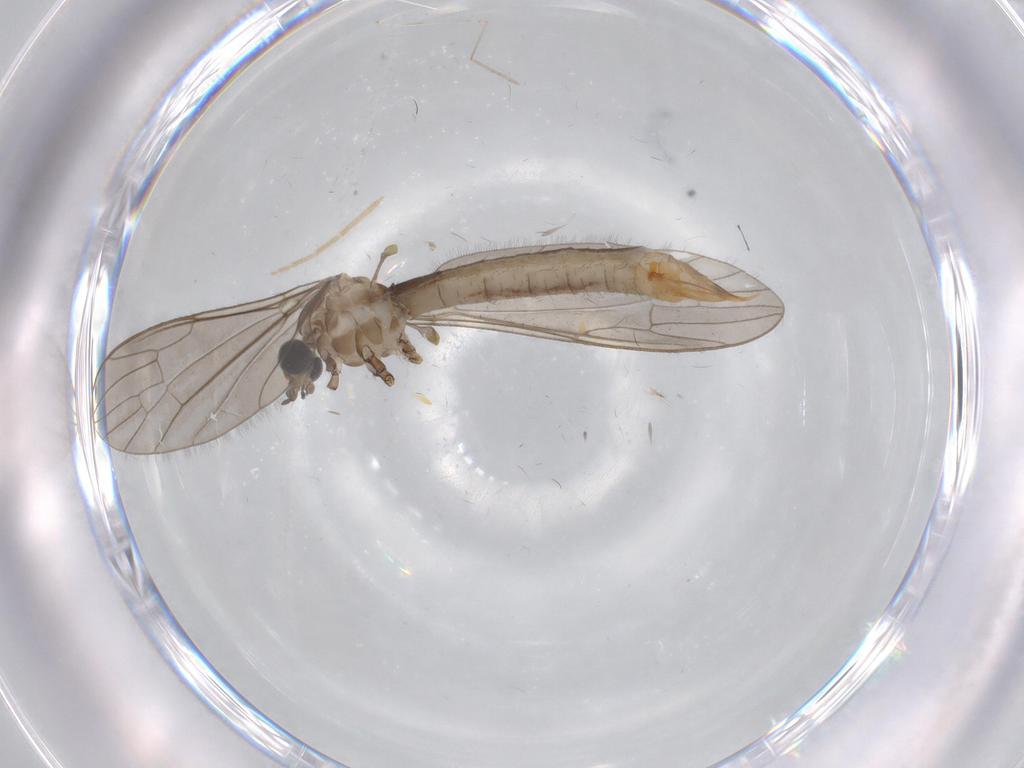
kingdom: Animalia
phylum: Arthropoda
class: Insecta
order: Diptera
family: Limoniidae
